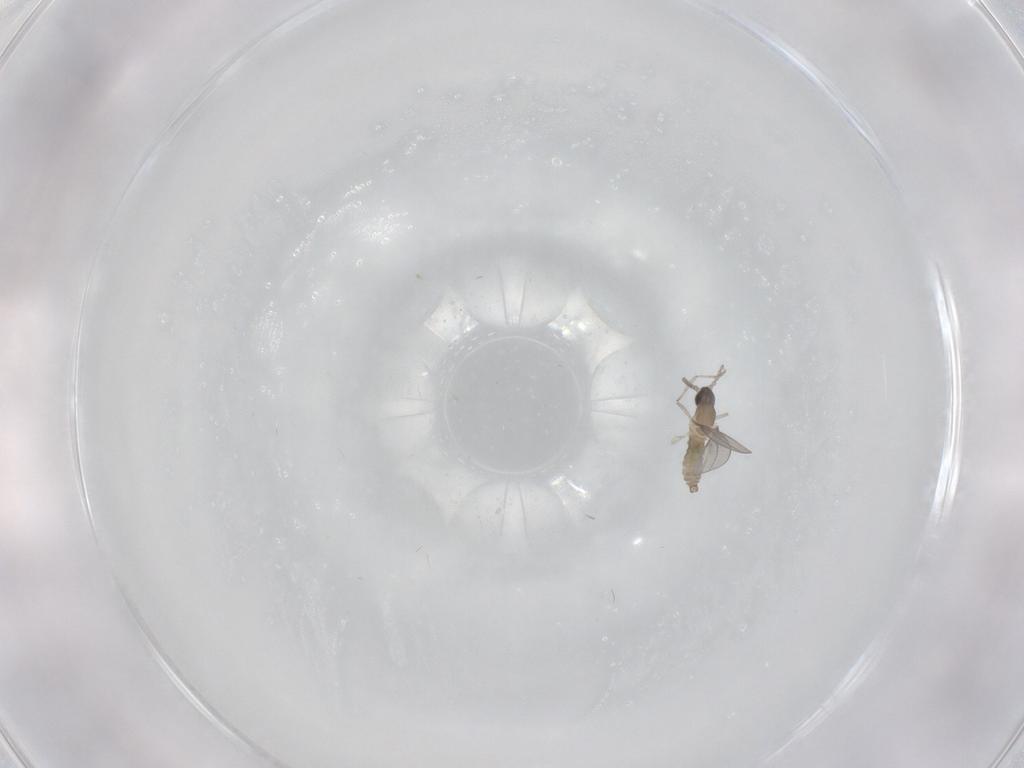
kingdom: Animalia
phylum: Arthropoda
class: Insecta
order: Diptera
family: Cecidomyiidae
